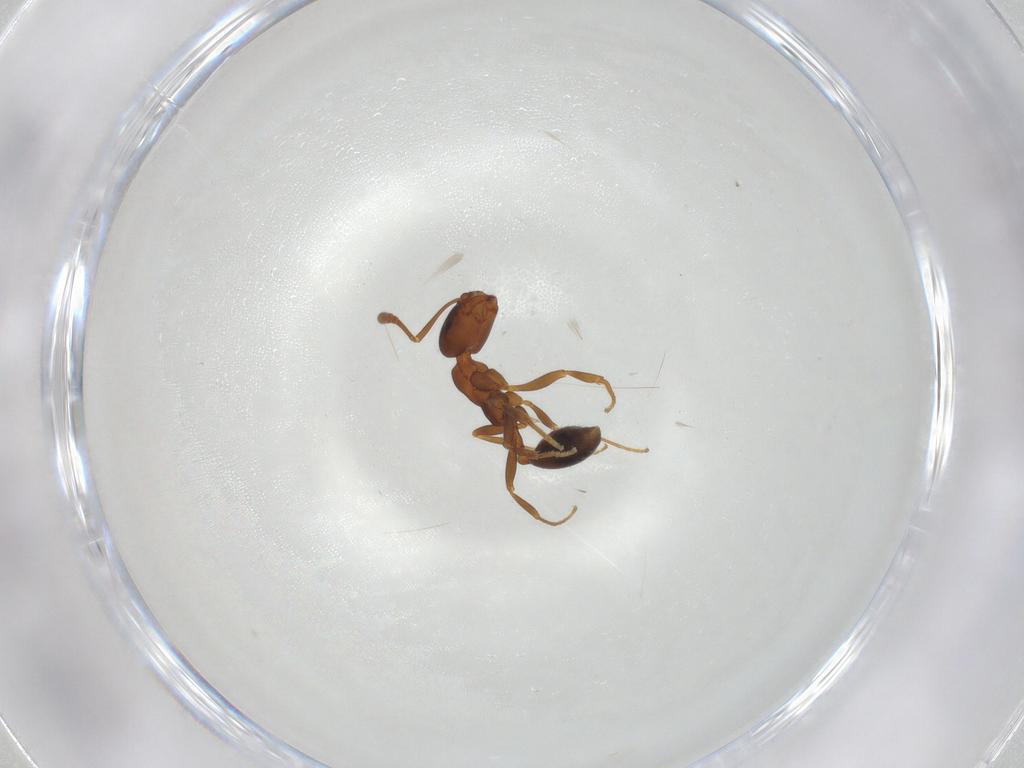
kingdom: Animalia
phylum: Arthropoda
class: Insecta
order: Hymenoptera
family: Formicidae
